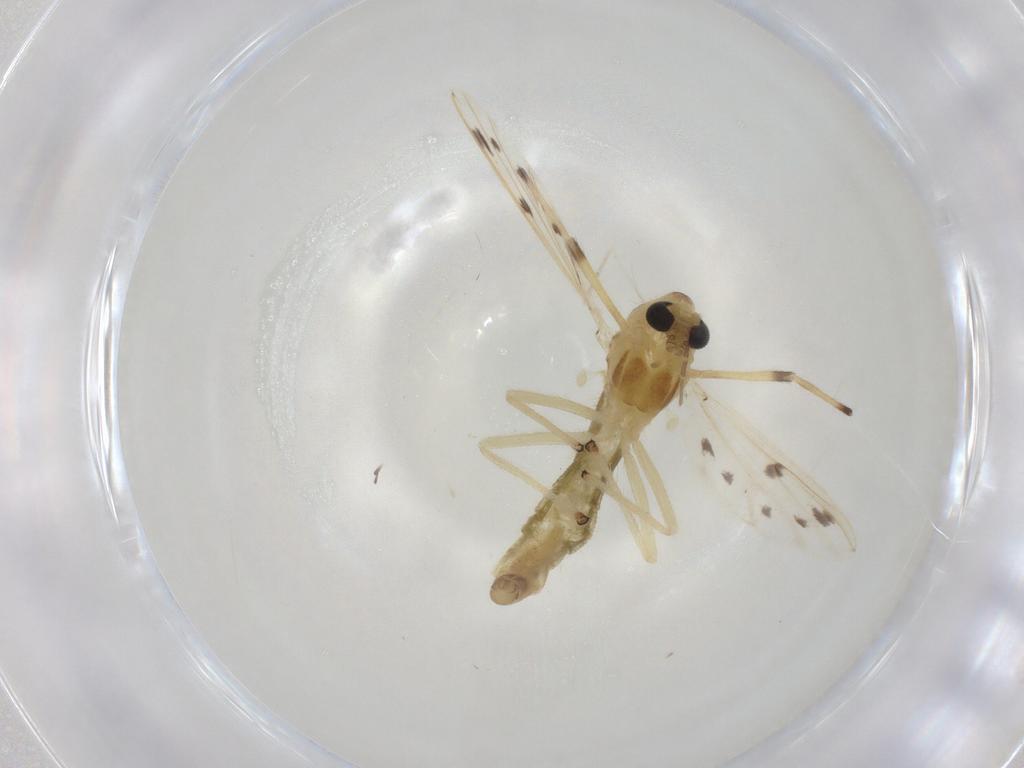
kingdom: Animalia
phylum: Arthropoda
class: Insecta
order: Diptera
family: Chironomidae
